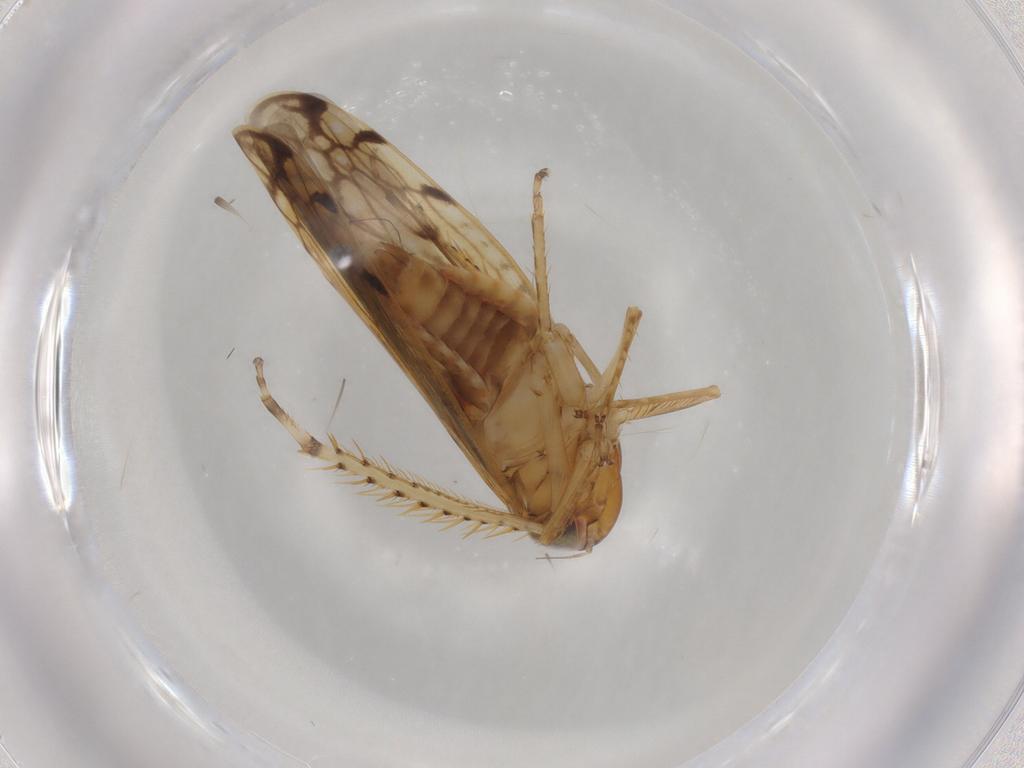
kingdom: Animalia
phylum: Arthropoda
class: Insecta
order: Hemiptera
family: Cicadellidae
